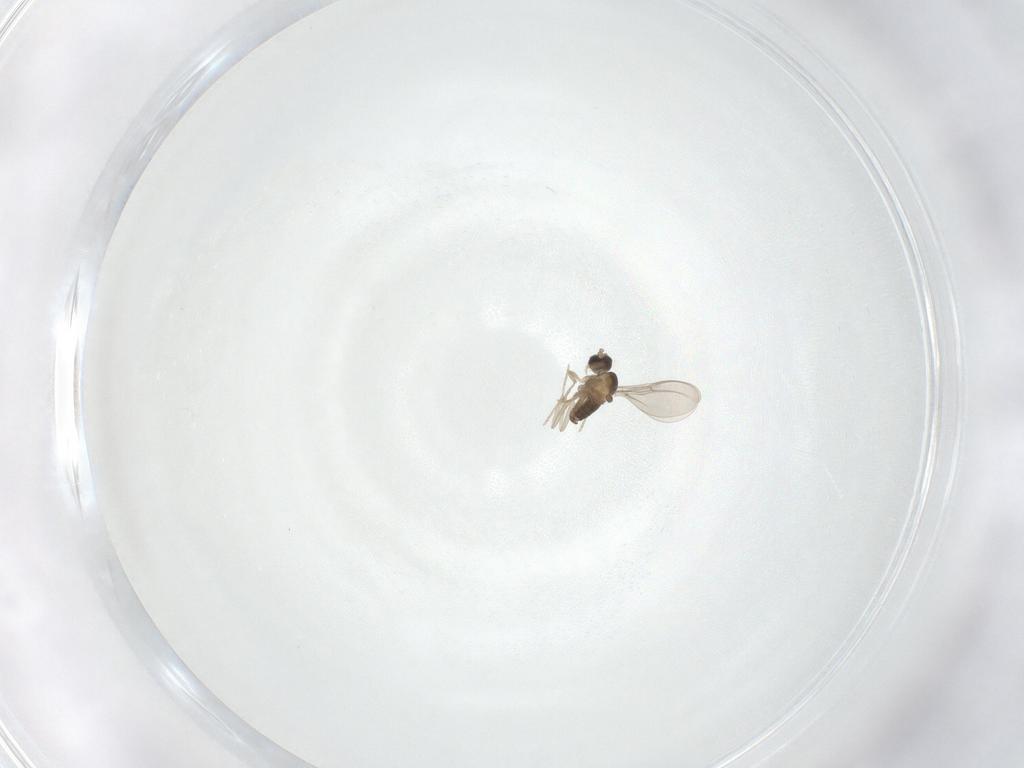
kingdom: Animalia
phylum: Arthropoda
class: Insecta
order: Diptera
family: Cecidomyiidae
